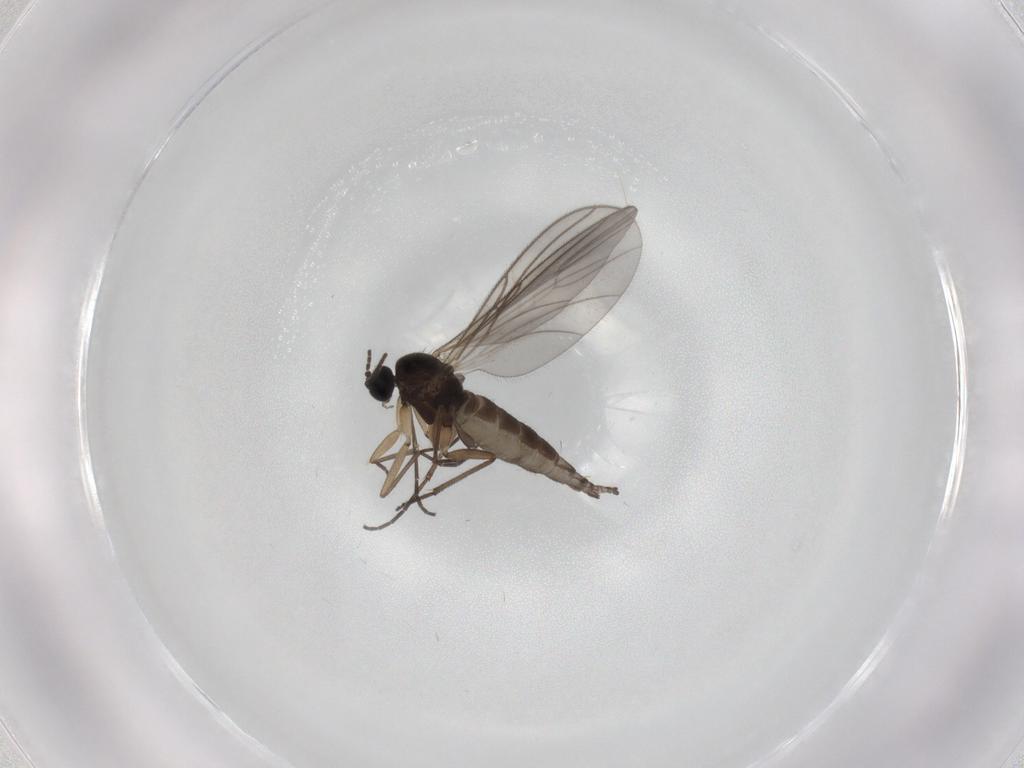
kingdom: Animalia
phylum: Arthropoda
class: Insecta
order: Diptera
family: Sciaridae
